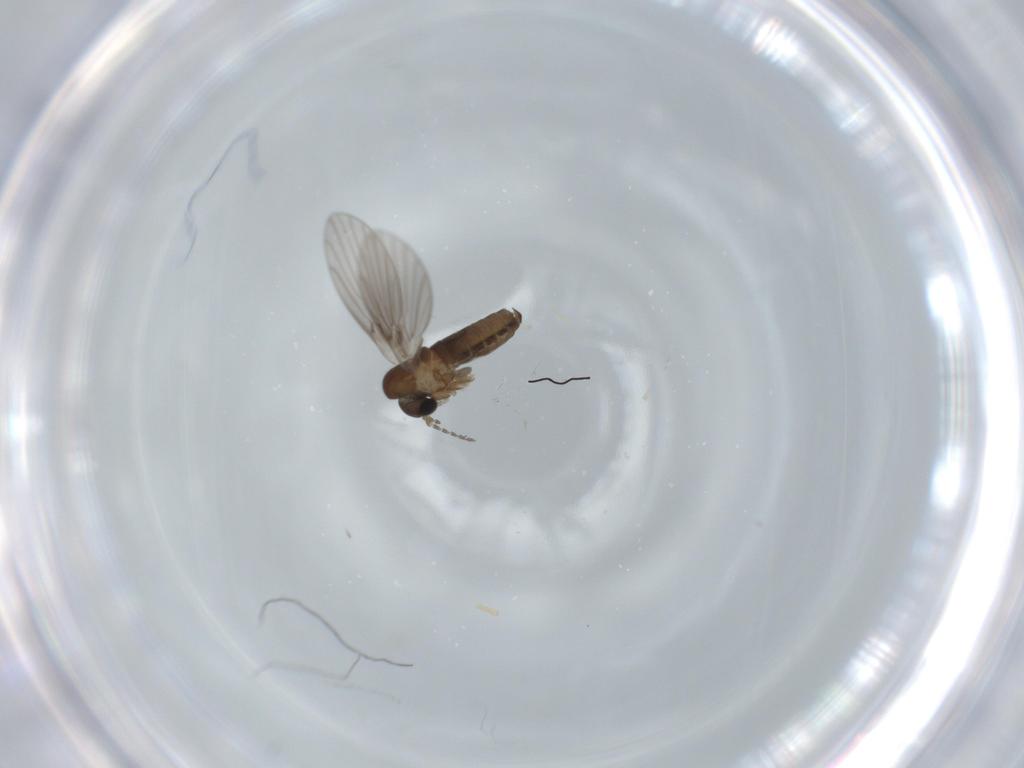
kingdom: Animalia
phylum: Arthropoda
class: Insecta
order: Diptera
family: Psychodidae
